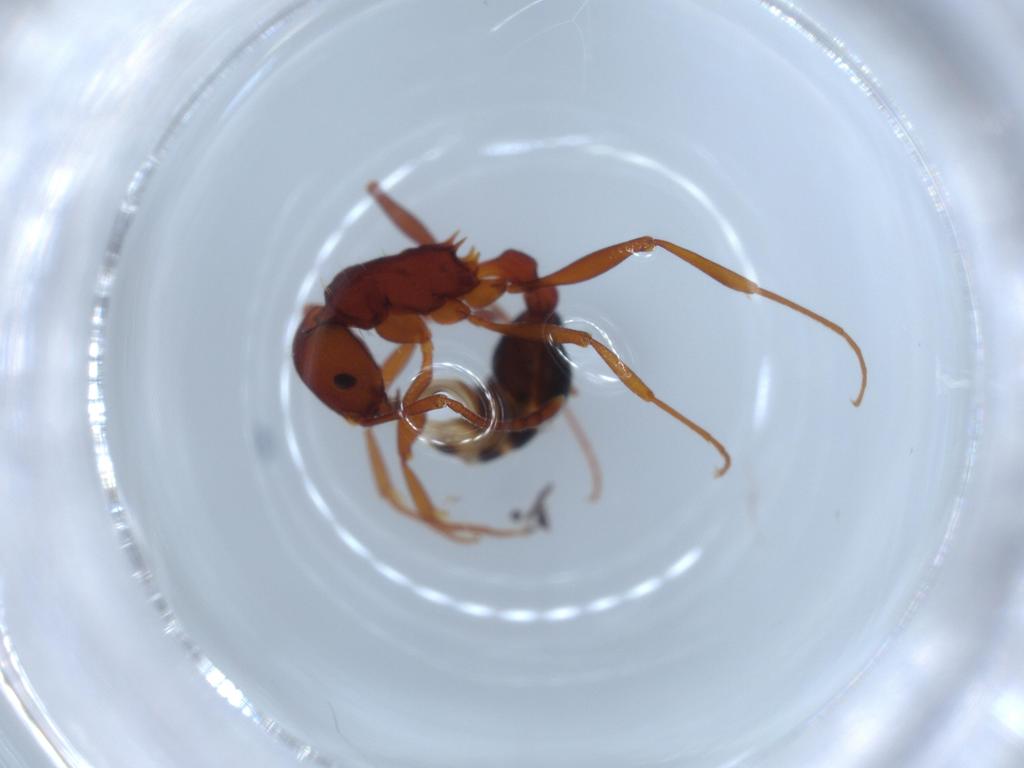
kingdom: Animalia
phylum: Arthropoda
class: Insecta
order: Hymenoptera
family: Formicidae
